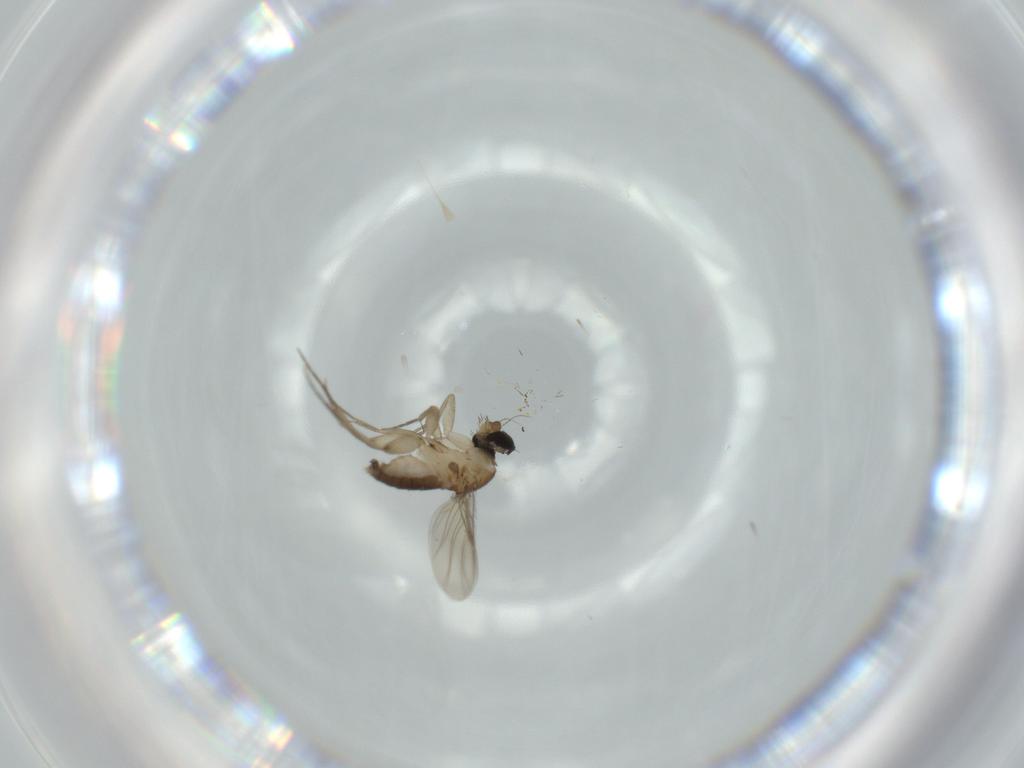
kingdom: Animalia
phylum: Arthropoda
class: Insecta
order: Diptera
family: Phoridae
